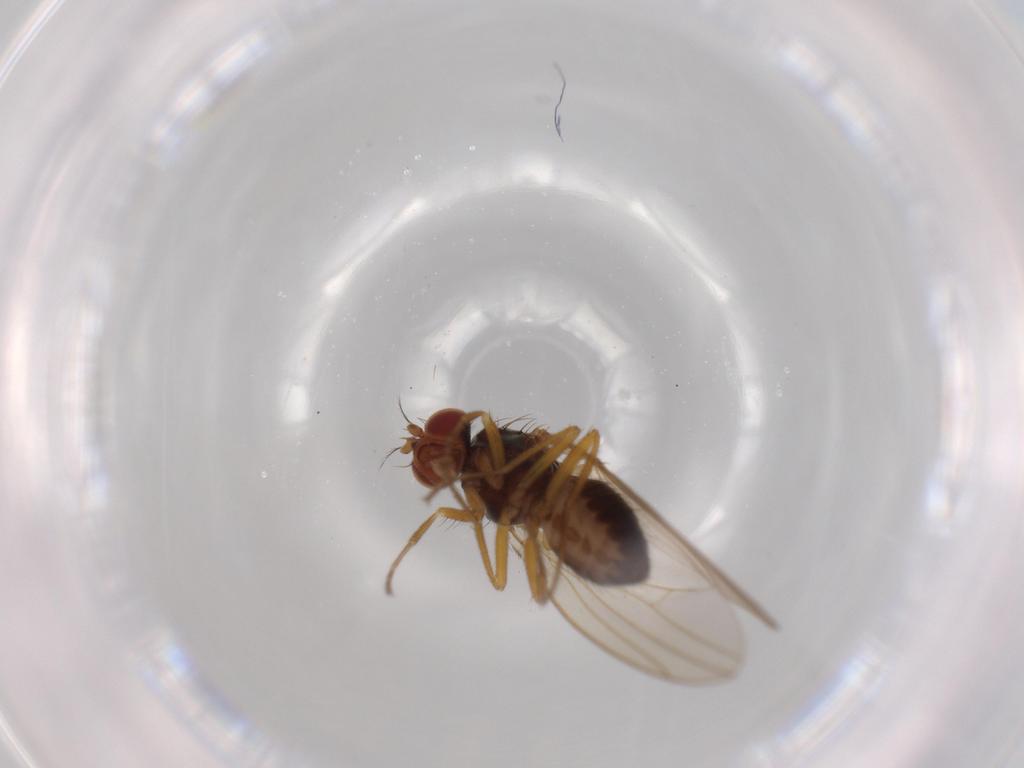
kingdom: Animalia
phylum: Arthropoda
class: Insecta
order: Diptera
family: Drosophilidae
